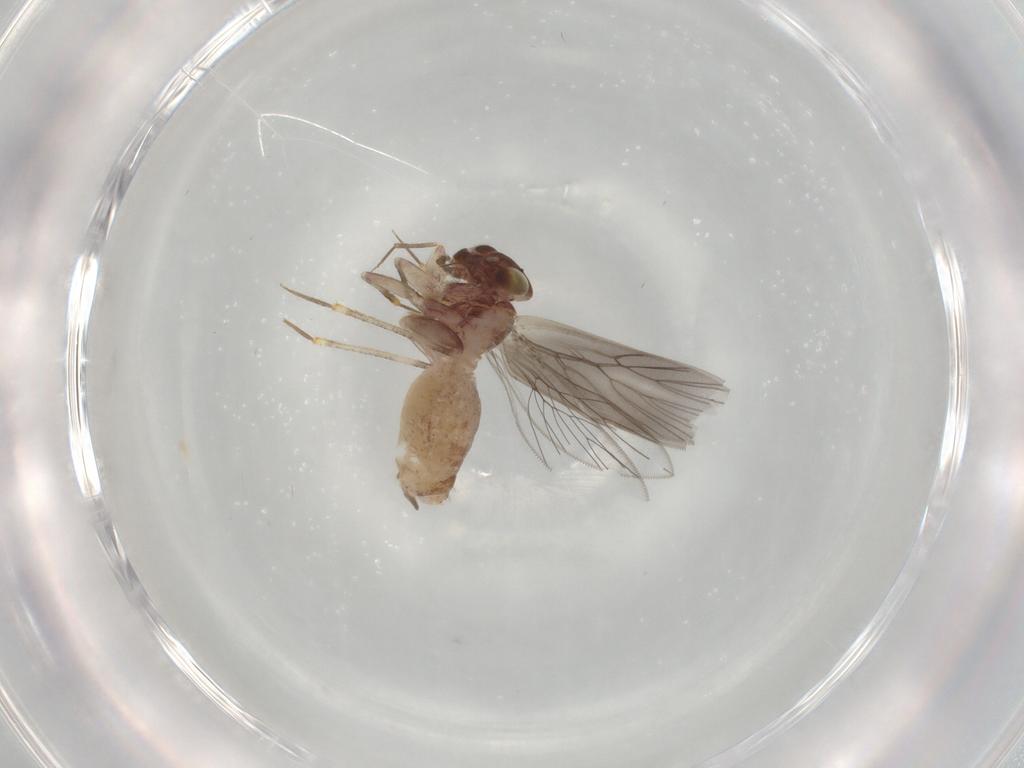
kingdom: Animalia
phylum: Arthropoda
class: Insecta
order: Psocodea
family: Lepidopsocidae
